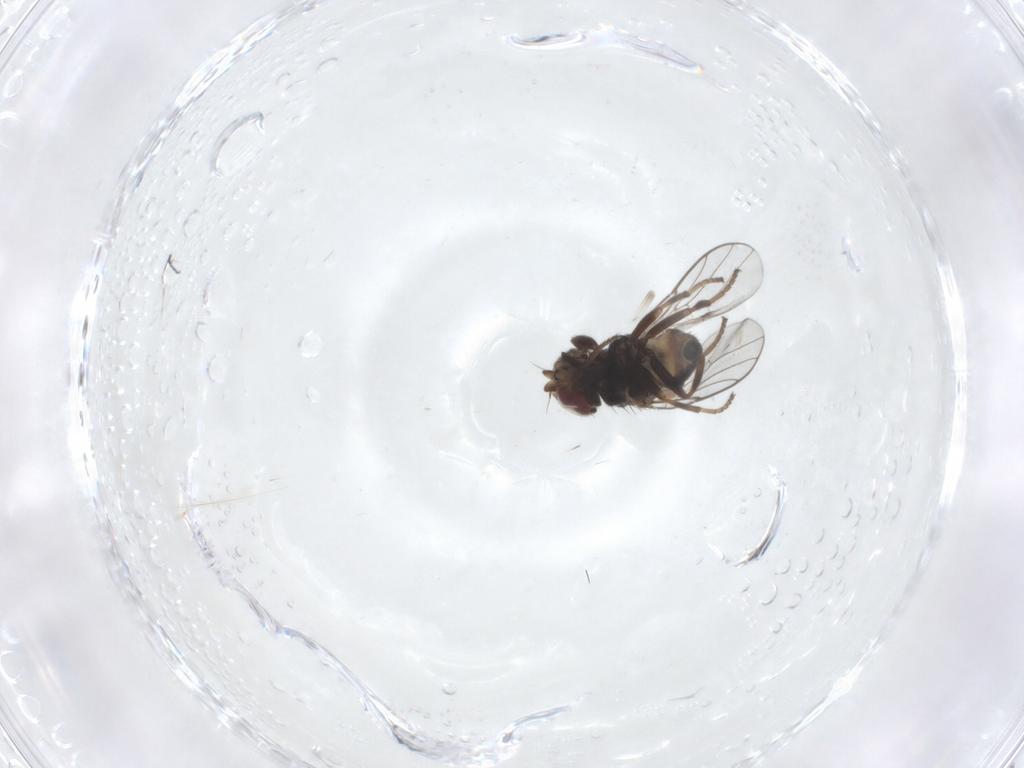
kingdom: Animalia
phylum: Arthropoda
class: Insecta
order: Diptera
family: Chloropidae
